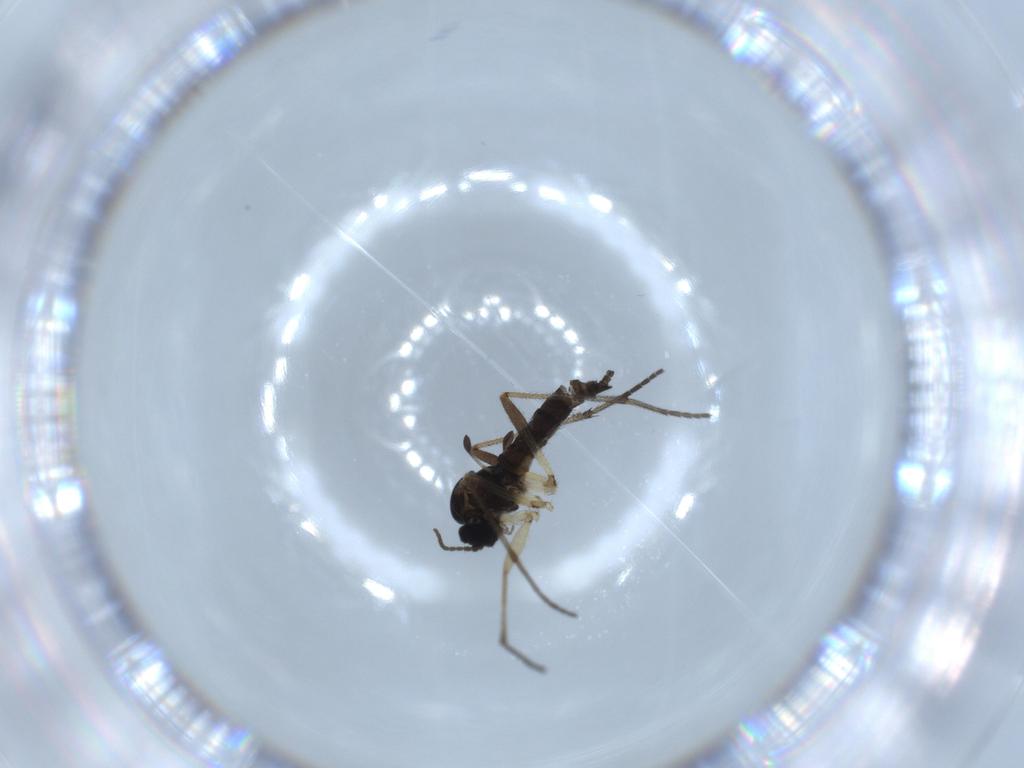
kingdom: Animalia
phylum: Arthropoda
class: Insecta
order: Diptera
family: Sciaridae
